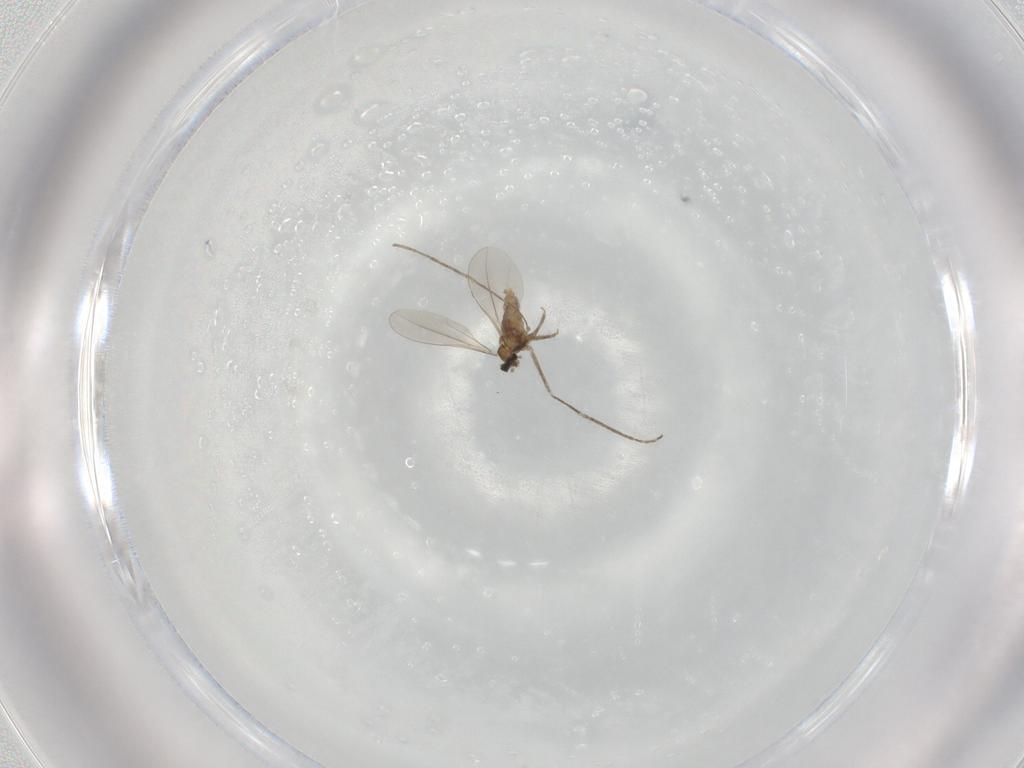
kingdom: Animalia
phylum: Arthropoda
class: Insecta
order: Diptera
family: Cecidomyiidae
